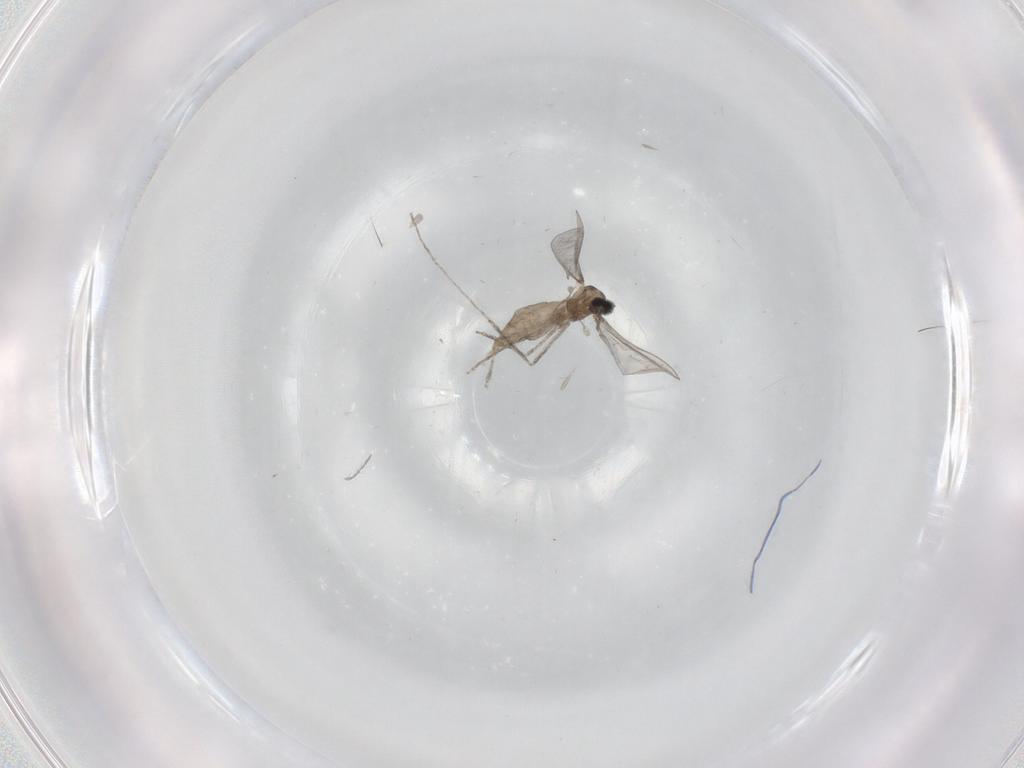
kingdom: Animalia
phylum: Arthropoda
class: Insecta
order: Diptera
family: Cecidomyiidae
